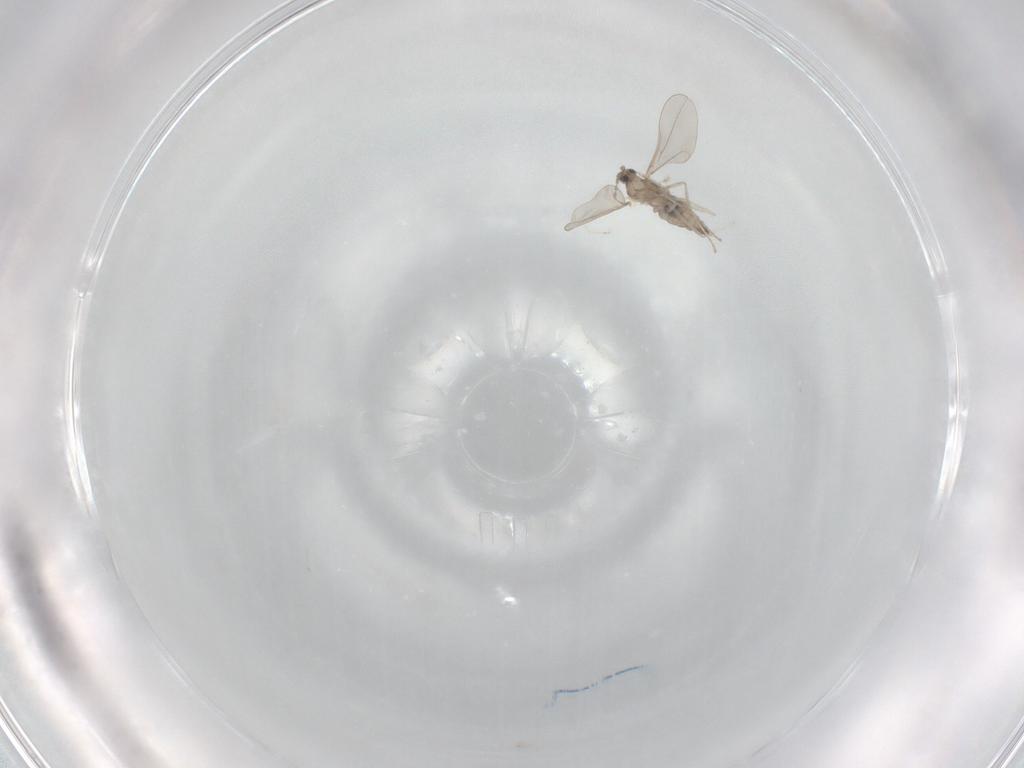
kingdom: Animalia
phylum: Arthropoda
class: Insecta
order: Diptera
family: Cecidomyiidae
